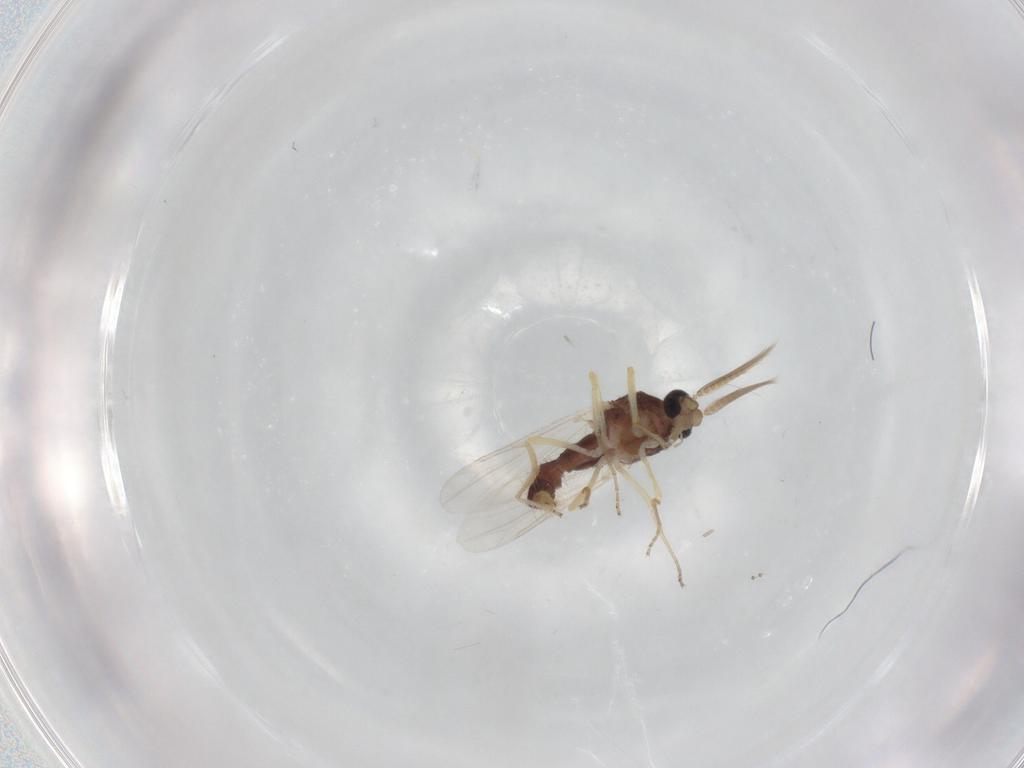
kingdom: Animalia
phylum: Arthropoda
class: Insecta
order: Diptera
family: Ceratopogonidae
